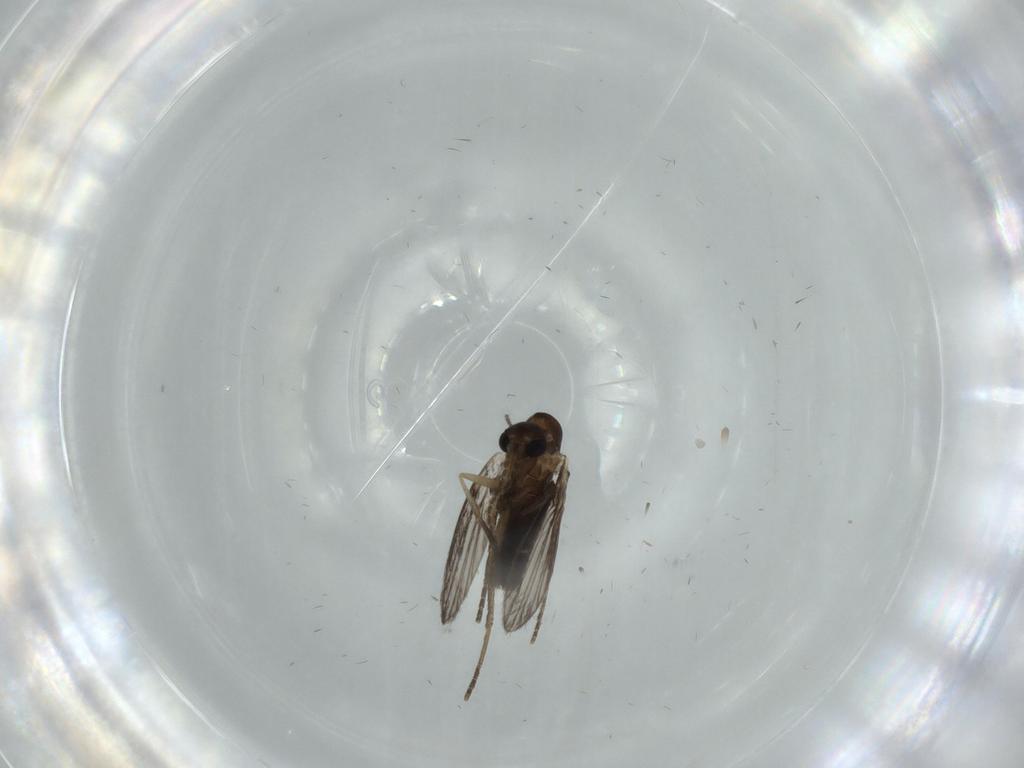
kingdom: Animalia
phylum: Arthropoda
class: Insecta
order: Diptera
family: Psychodidae
